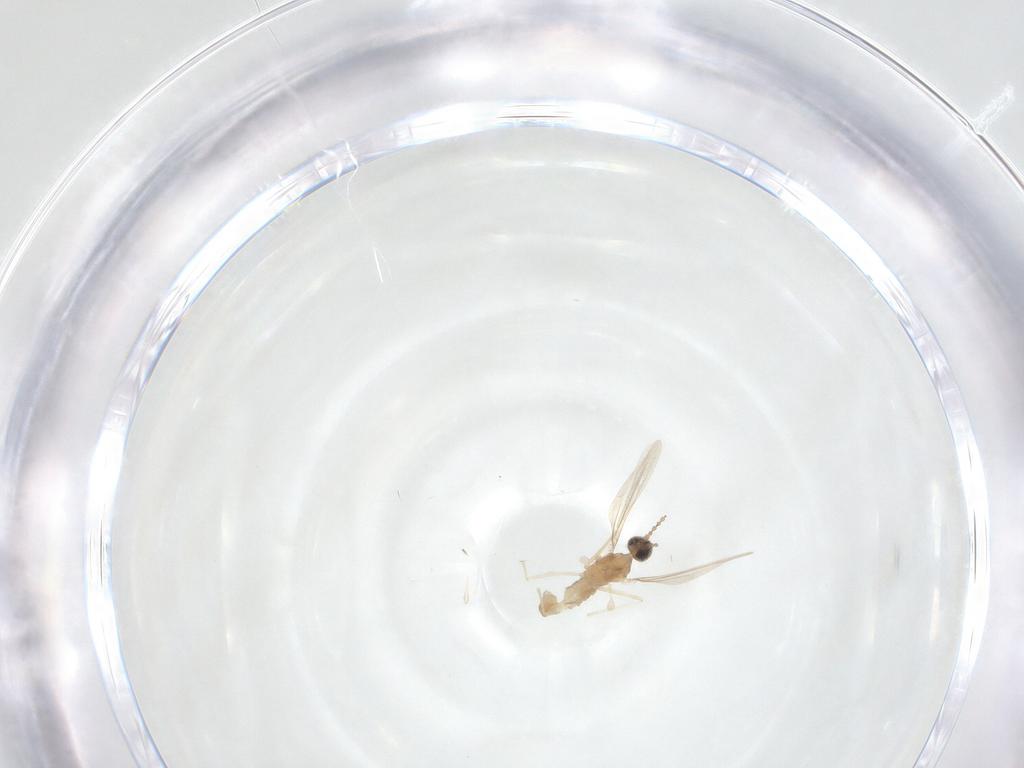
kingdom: Animalia
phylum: Arthropoda
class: Insecta
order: Diptera
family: Cecidomyiidae
